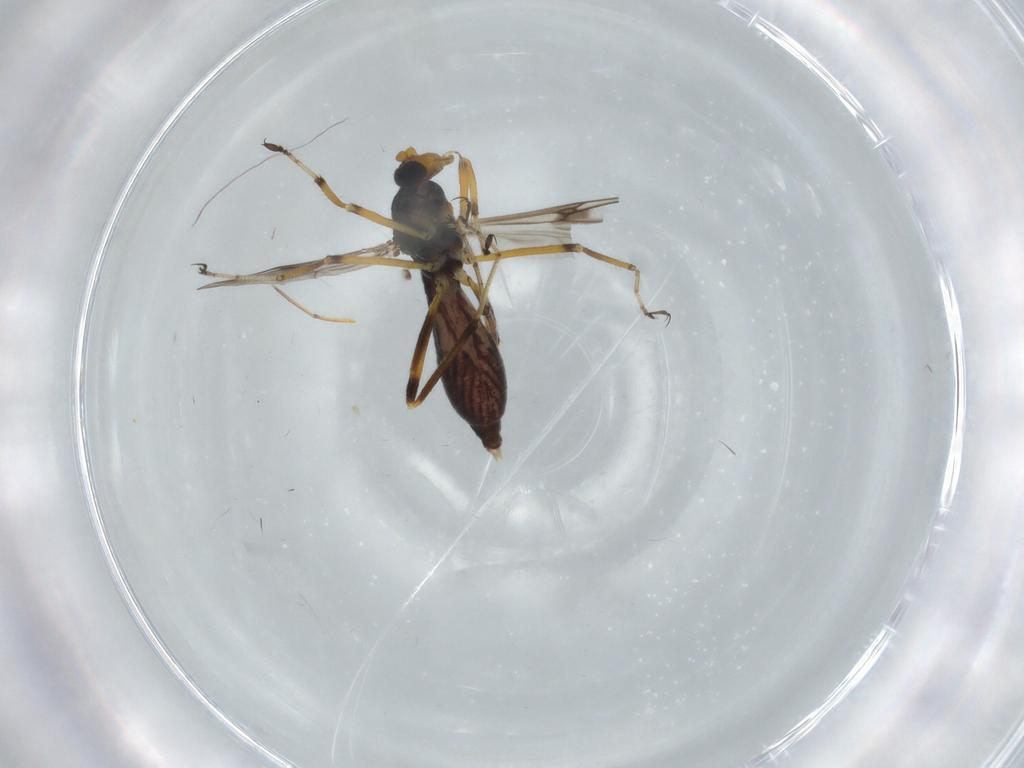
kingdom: Animalia
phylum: Arthropoda
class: Insecta
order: Diptera
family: Ceratopogonidae
